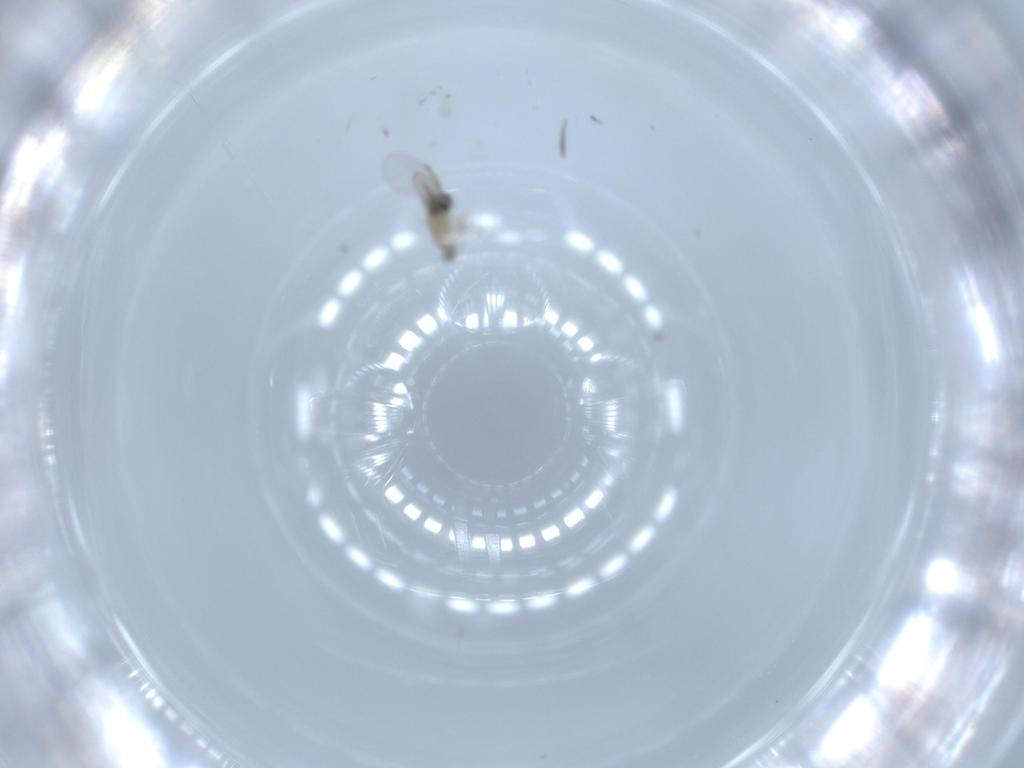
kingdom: Animalia
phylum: Arthropoda
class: Insecta
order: Diptera
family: Cecidomyiidae
